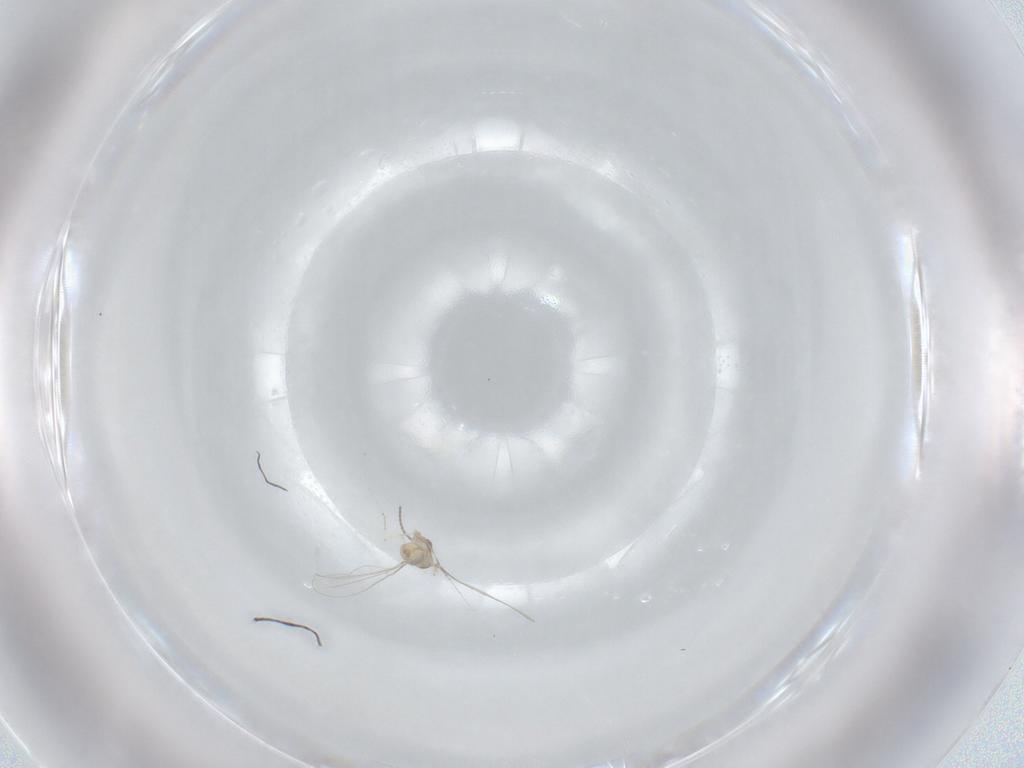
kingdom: Animalia
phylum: Arthropoda
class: Insecta
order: Diptera
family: Cecidomyiidae
